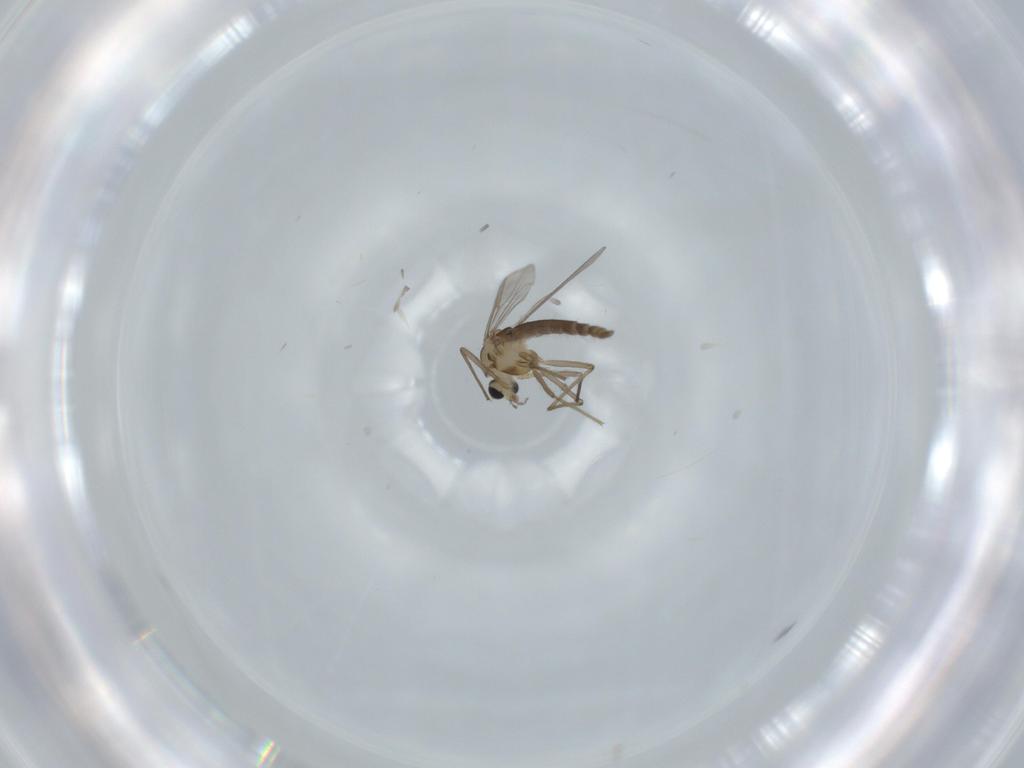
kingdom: Animalia
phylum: Arthropoda
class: Insecta
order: Diptera
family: Chironomidae
